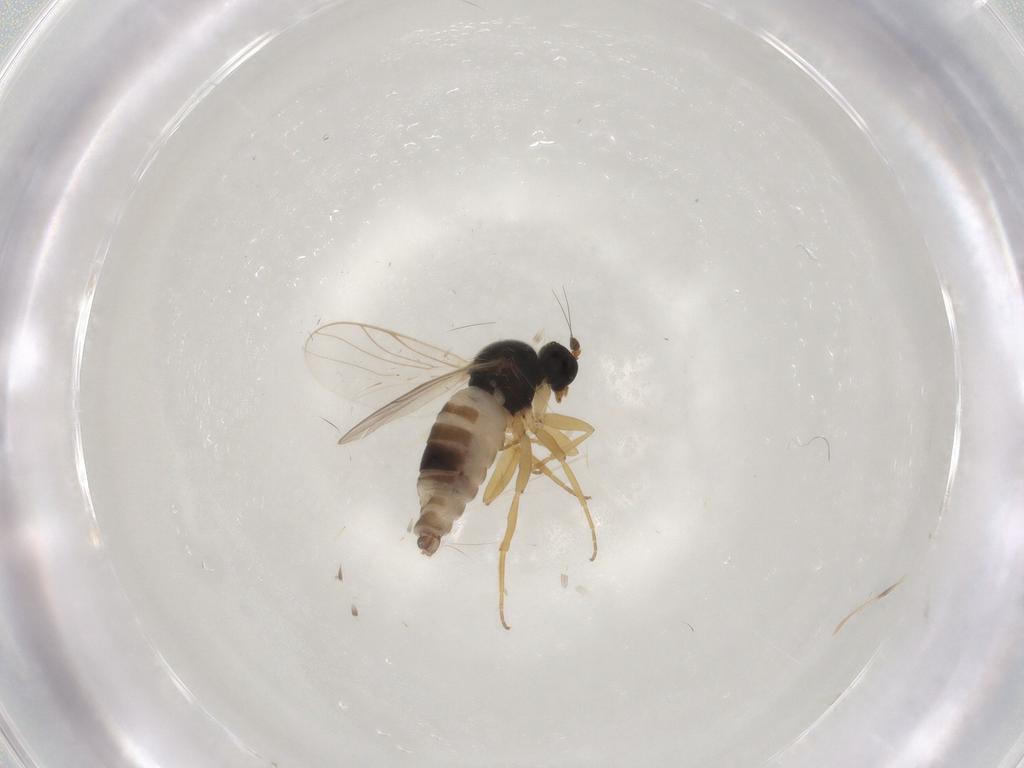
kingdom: Animalia
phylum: Arthropoda
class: Insecta
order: Diptera
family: Hybotidae
